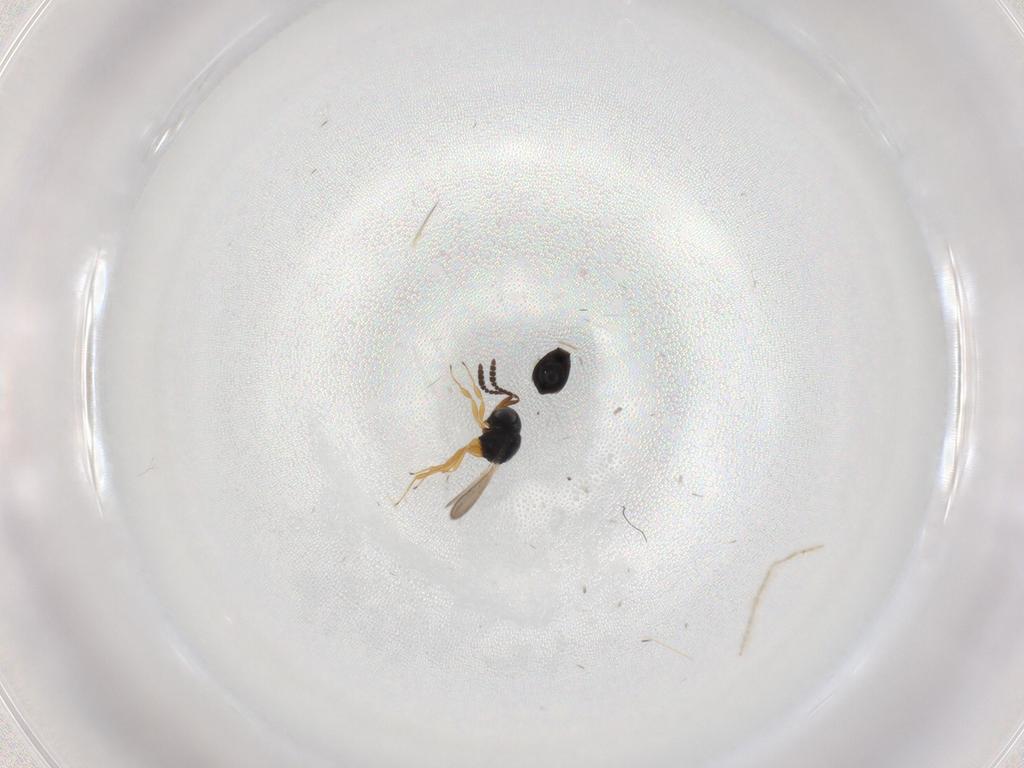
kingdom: Animalia
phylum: Arthropoda
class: Insecta
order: Hymenoptera
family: Scelionidae
